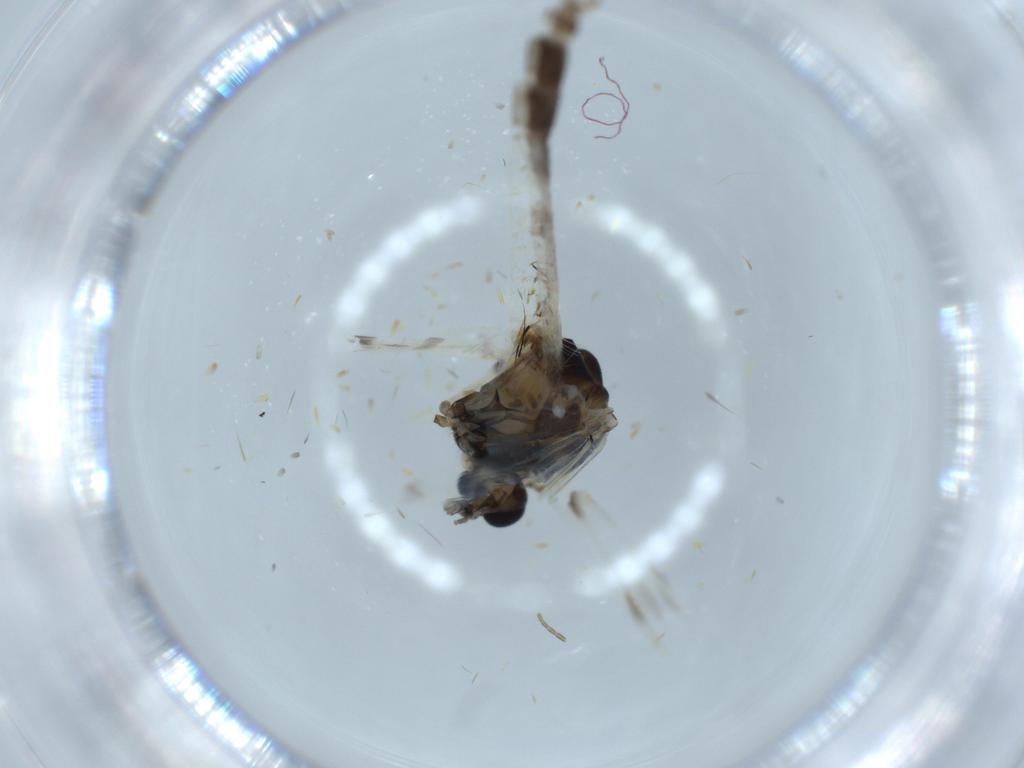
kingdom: Animalia
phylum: Arthropoda
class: Insecta
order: Diptera
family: Chironomidae
